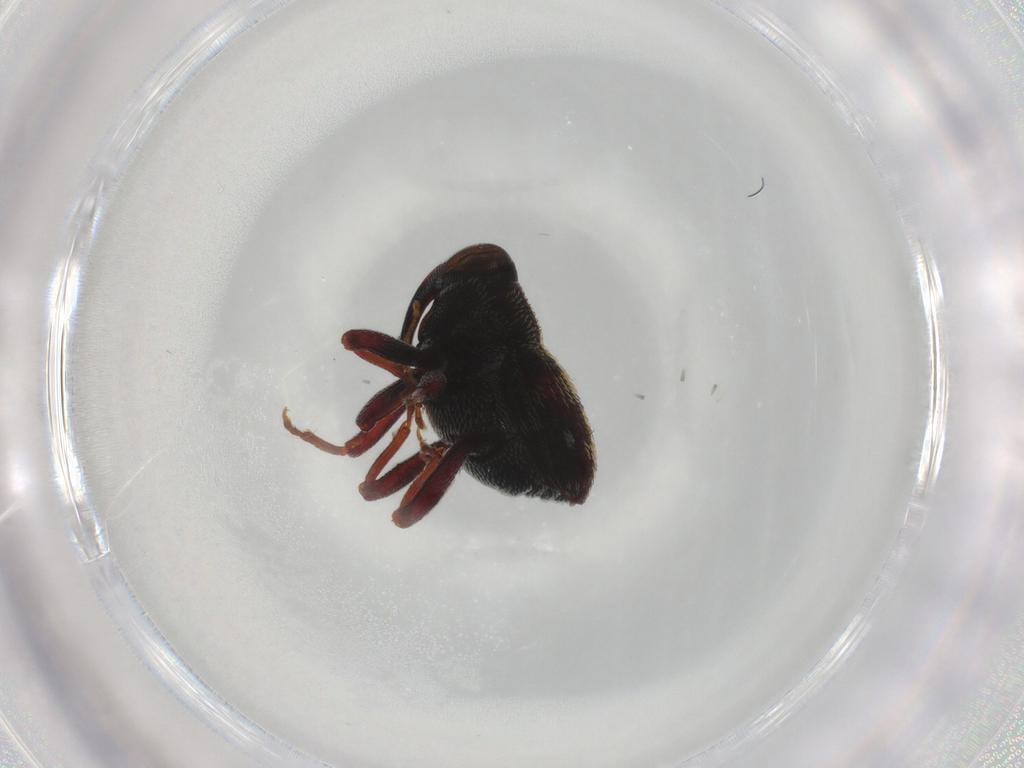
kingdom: Animalia
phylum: Arthropoda
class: Insecta
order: Diptera
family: Cecidomyiidae
